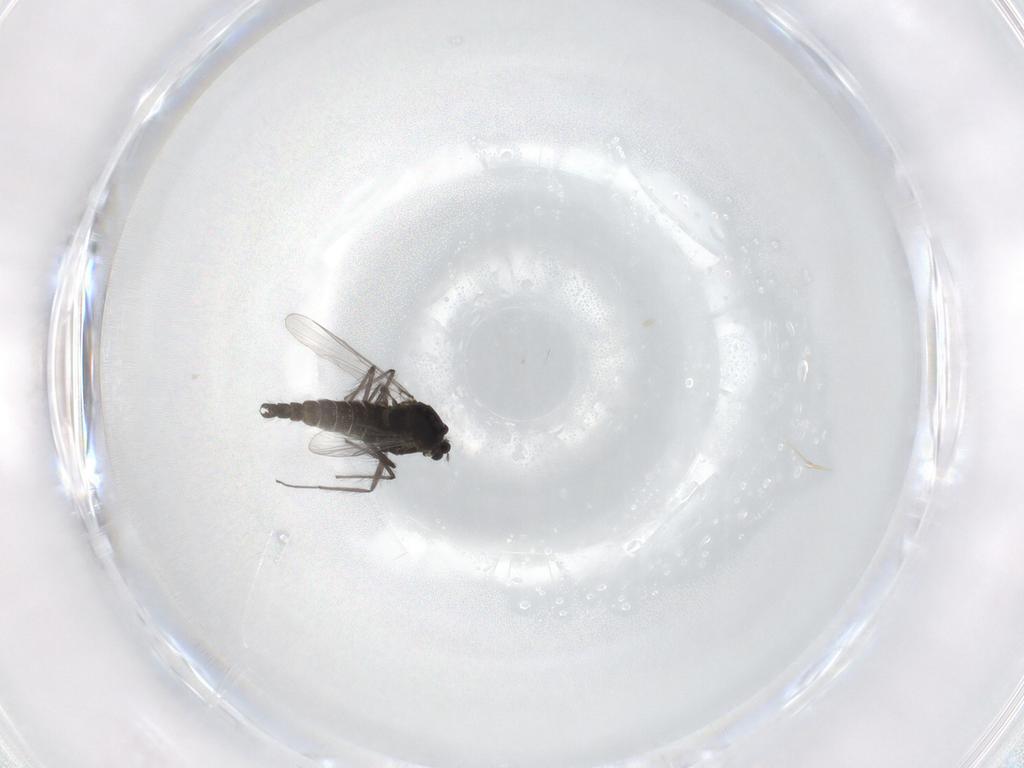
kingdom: Animalia
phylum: Arthropoda
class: Insecta
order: Diptera
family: Chironomidae
